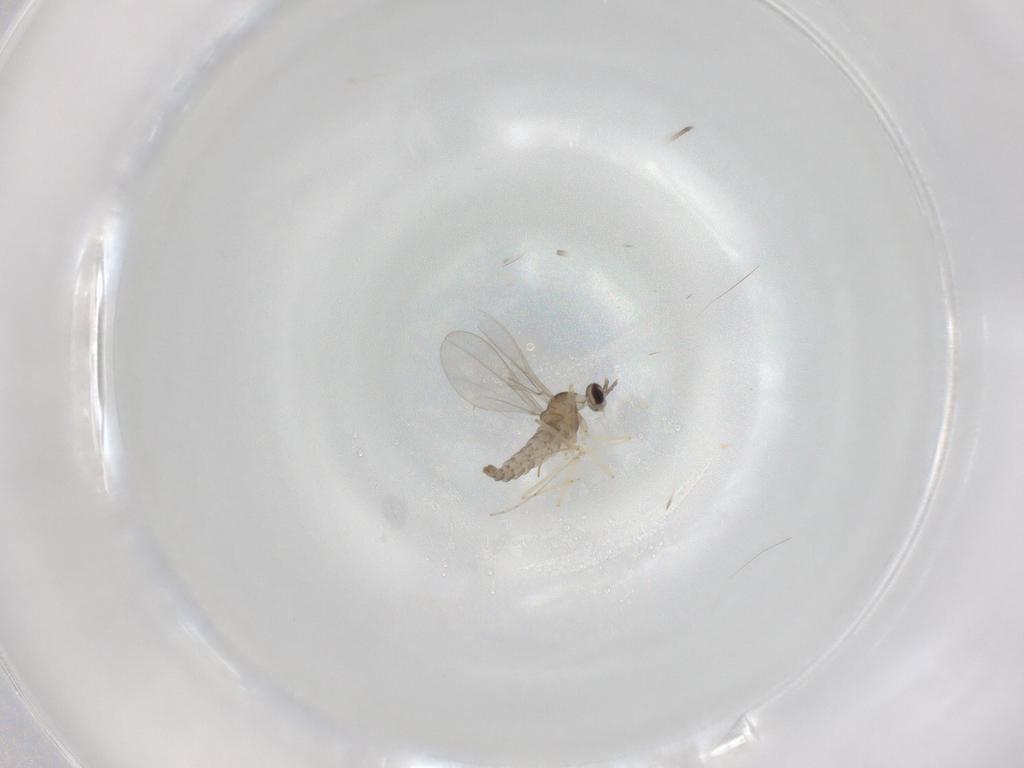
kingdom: Animalia
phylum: Arthropoda
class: Insecta
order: Diptera
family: Cecidomyiidae
